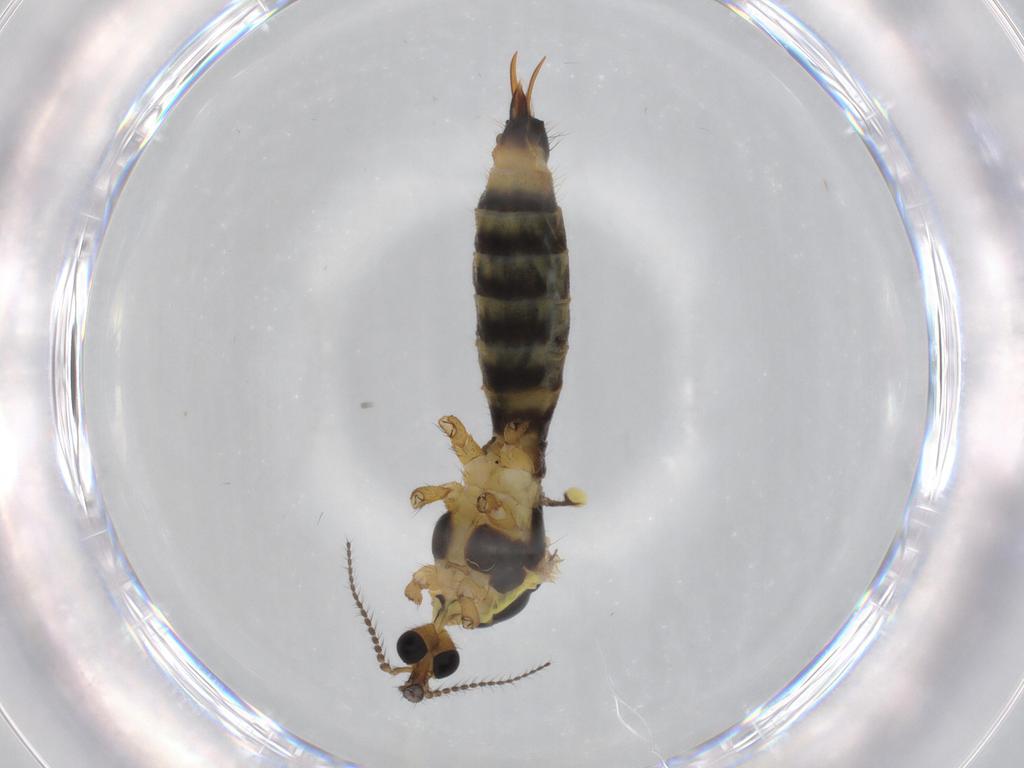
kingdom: Animalia
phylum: Arthropoda
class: Insecta
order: Diptera
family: Limoniidae
